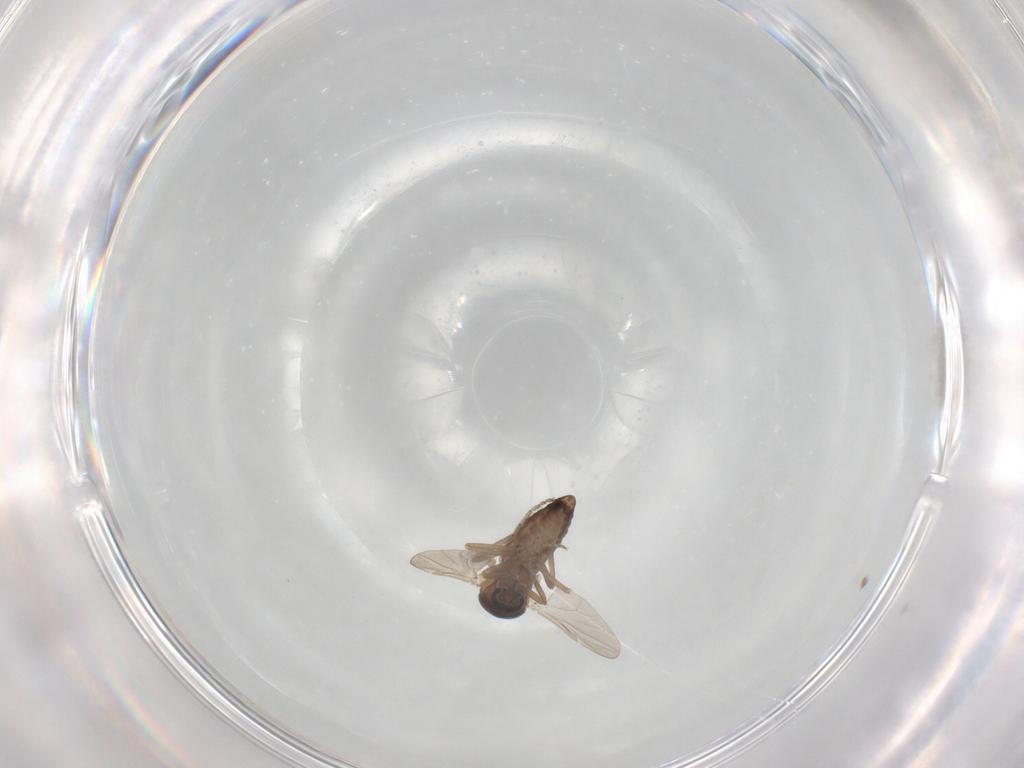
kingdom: Animalia
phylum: Arthropoda
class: Insecta
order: Diptera
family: Ceratopogonidae
